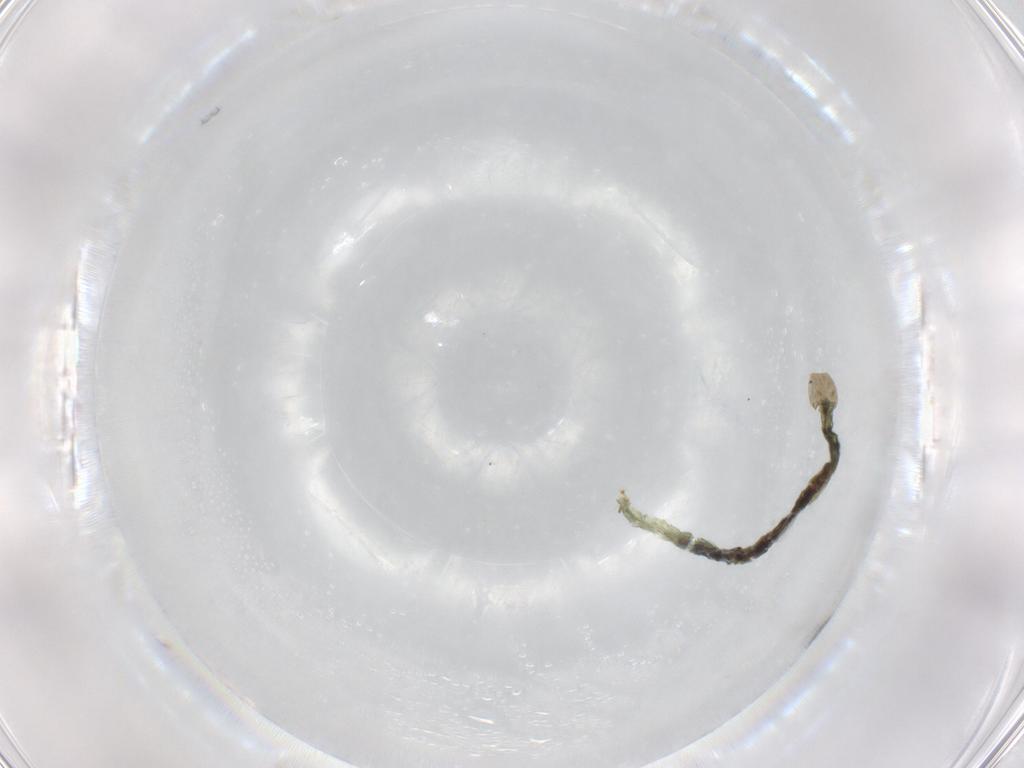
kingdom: Animalia
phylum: Arthropoda
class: Insecta
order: Diptera
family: Chironomidae
